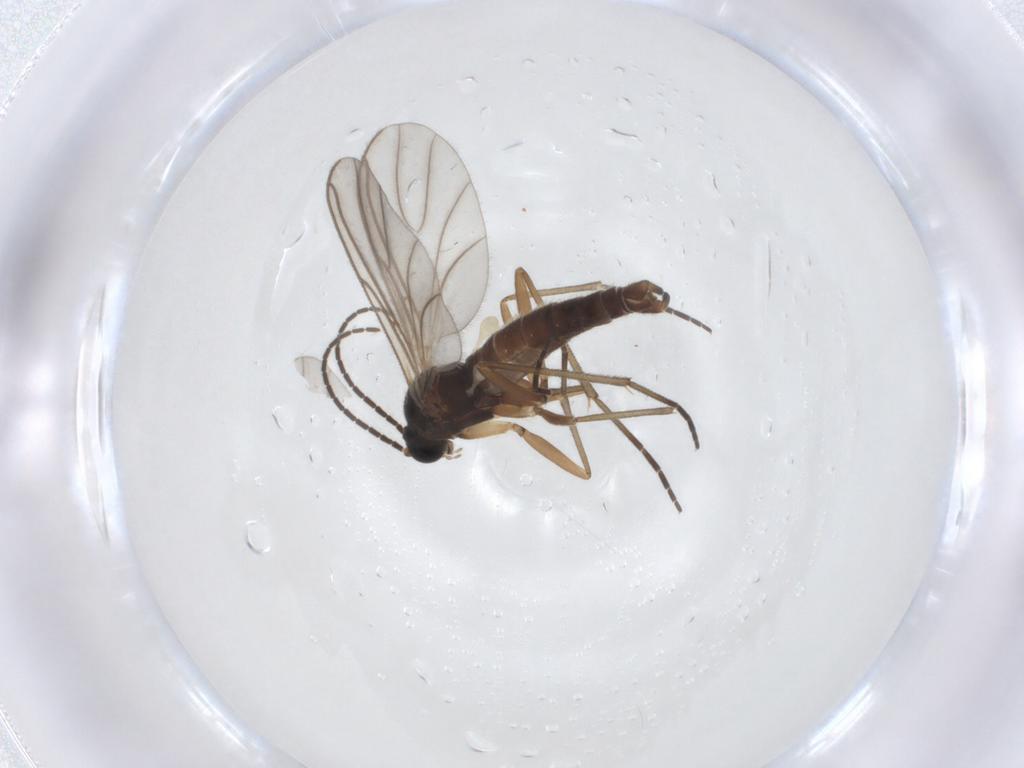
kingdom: Animalia
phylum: Arthropoda
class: Insecta
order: Diptera
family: Sciaridae
